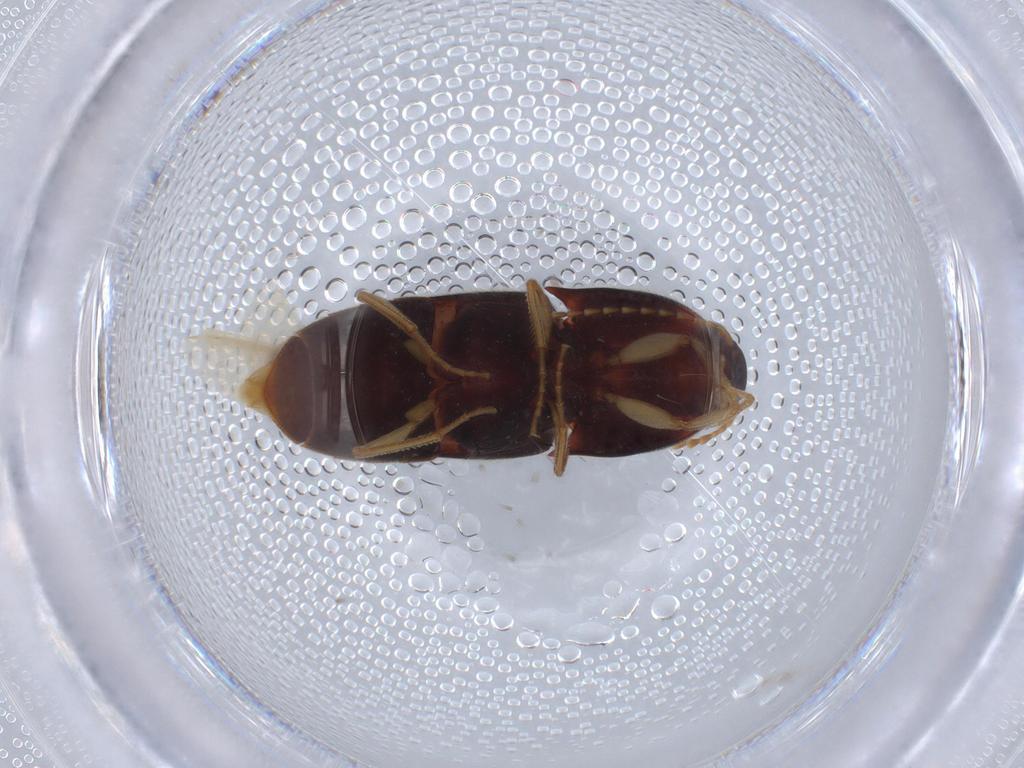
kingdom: Animalia
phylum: Arthropoda
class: Insecta
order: Coleoptera
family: Elateridae
